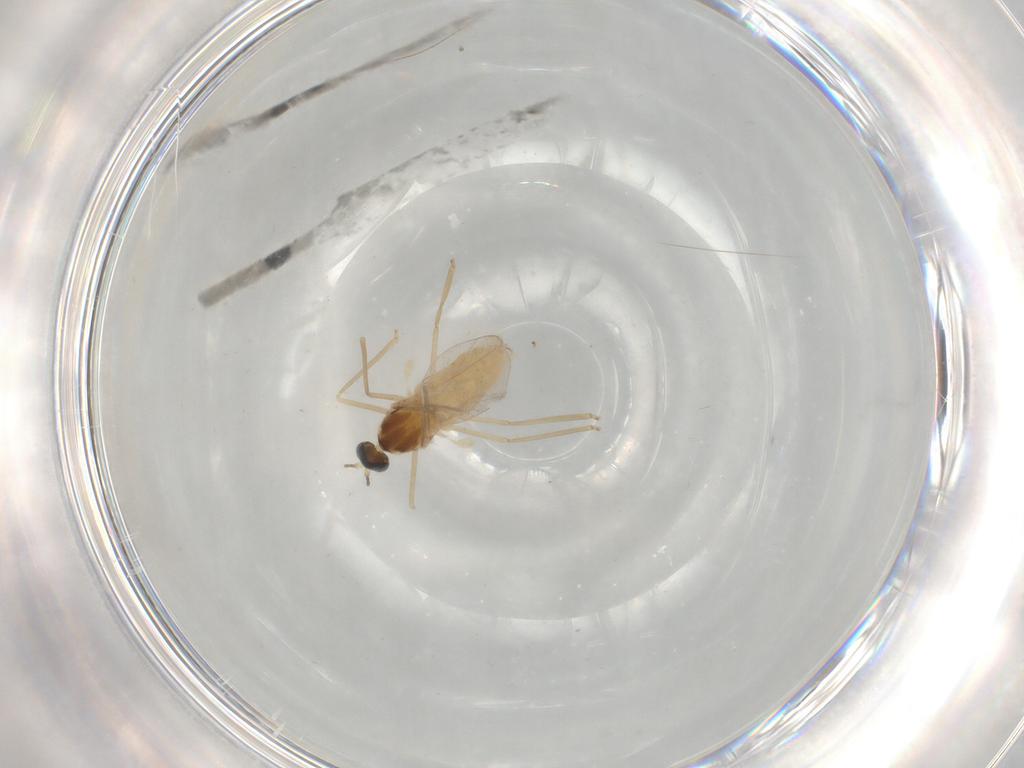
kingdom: Animalia
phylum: Arthropoda
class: Insecta
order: Diptera
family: Cecidomyiidae
